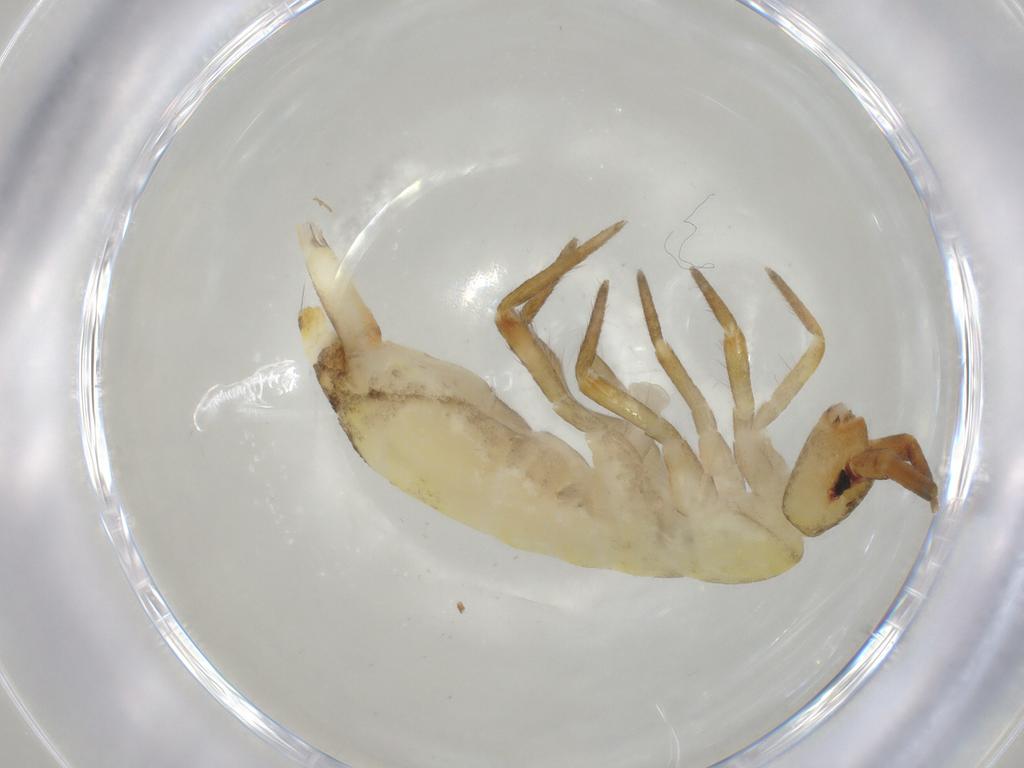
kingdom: Animalia
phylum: Arthropoda
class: Collembola
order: Entomobryomorpha
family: Tomoceridae
